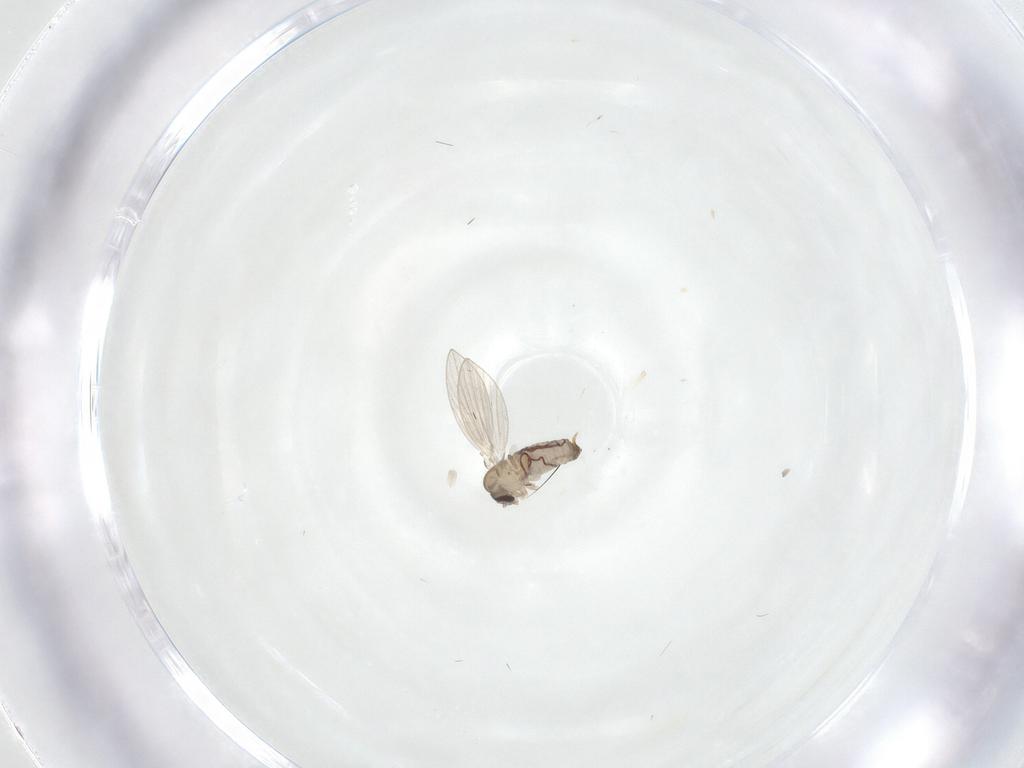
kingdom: Animalia
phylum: Arthropoda
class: Insecta
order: Diptera
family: Psychodidae
